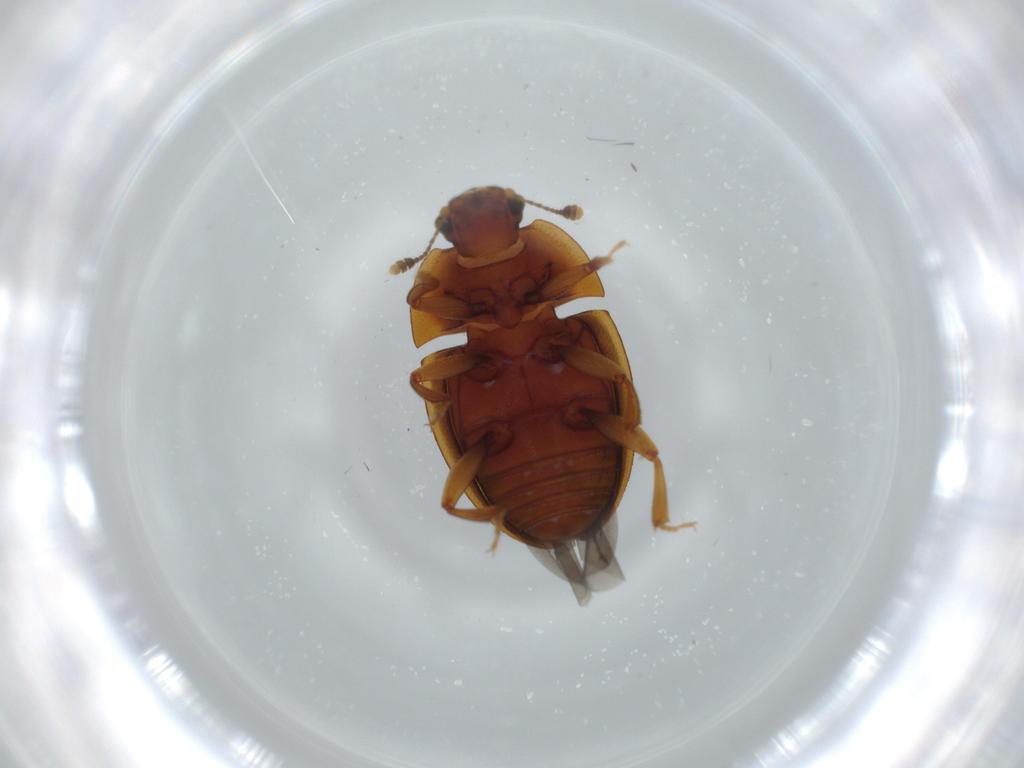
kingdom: Animalia
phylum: Arthropoda
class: Insecta
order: Coleoptera
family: Nitidulidae
